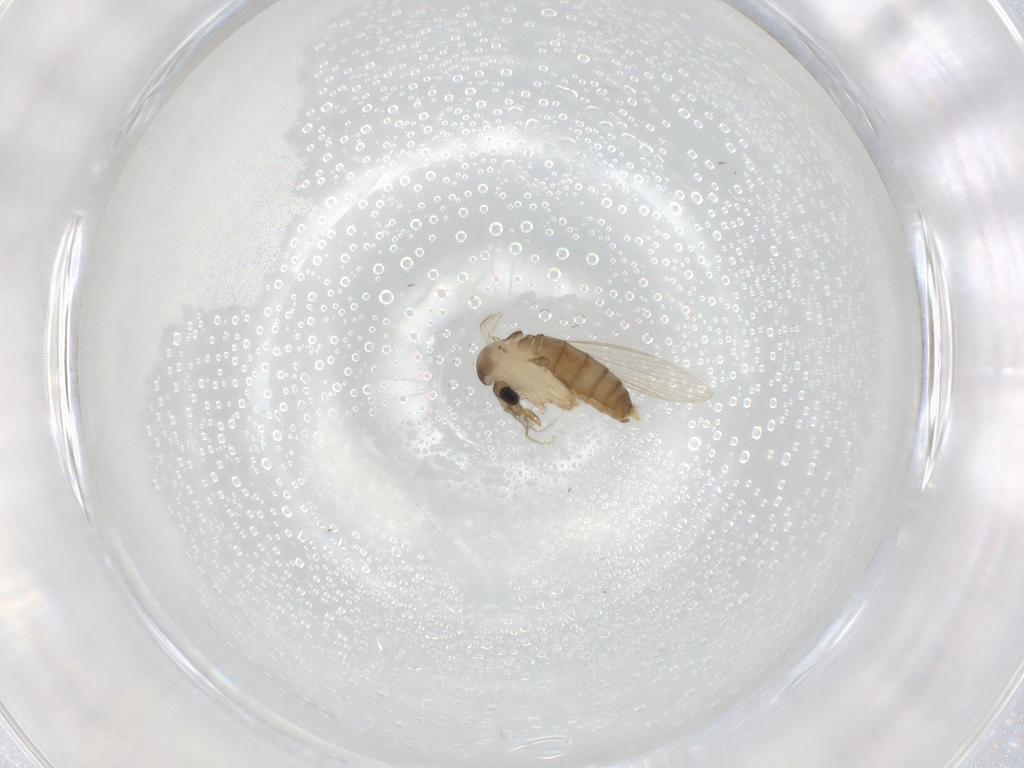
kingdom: Animalia
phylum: Arthropoda
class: Insecta
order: Diptera
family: Psychodidae
